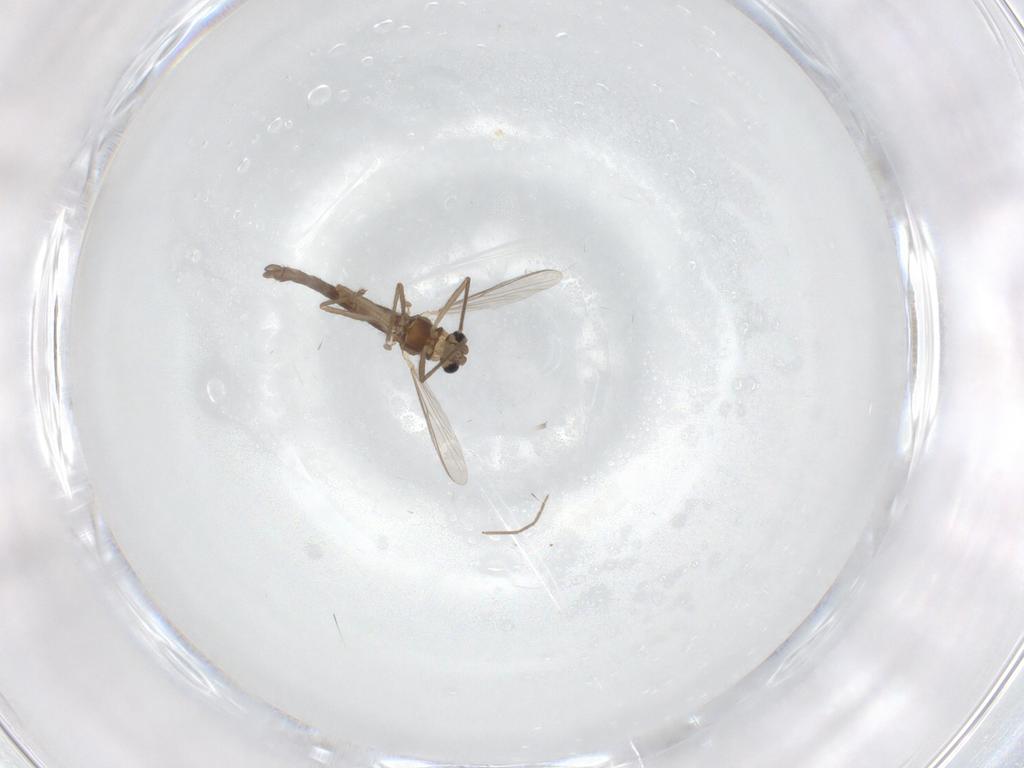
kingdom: Animalia
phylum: Arthropoda
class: Insecta
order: Diptera
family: Chironomidae
